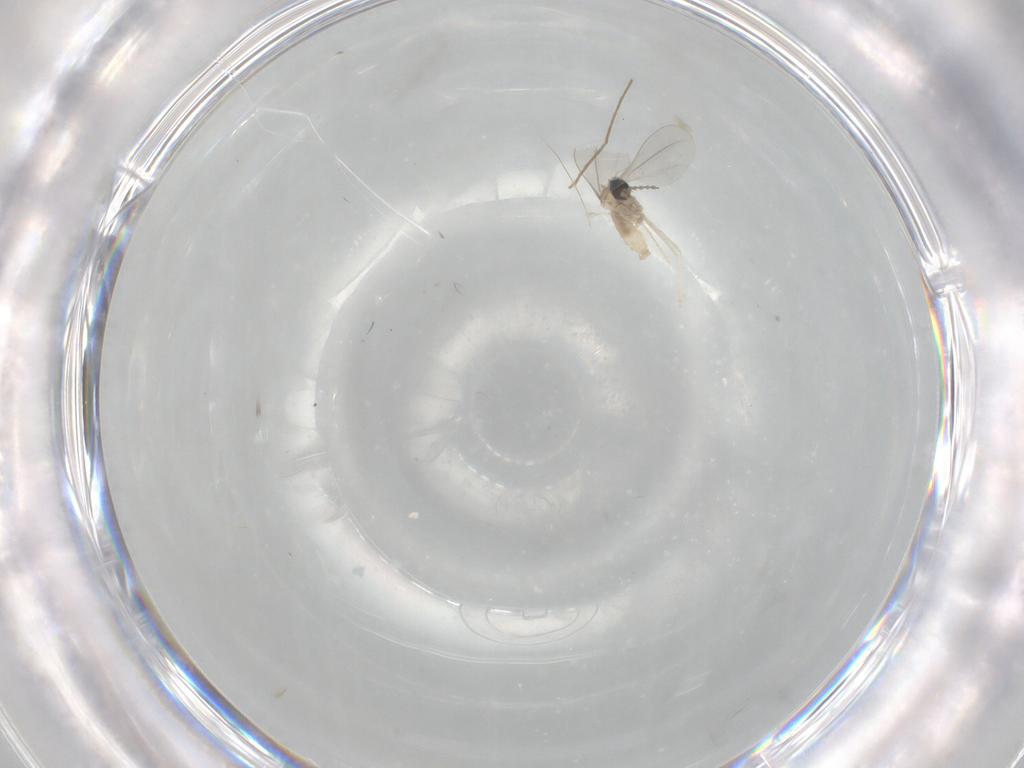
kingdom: Animalia
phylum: Arthropoda
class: Insecta
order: Diptera
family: Cecidomyiidae
